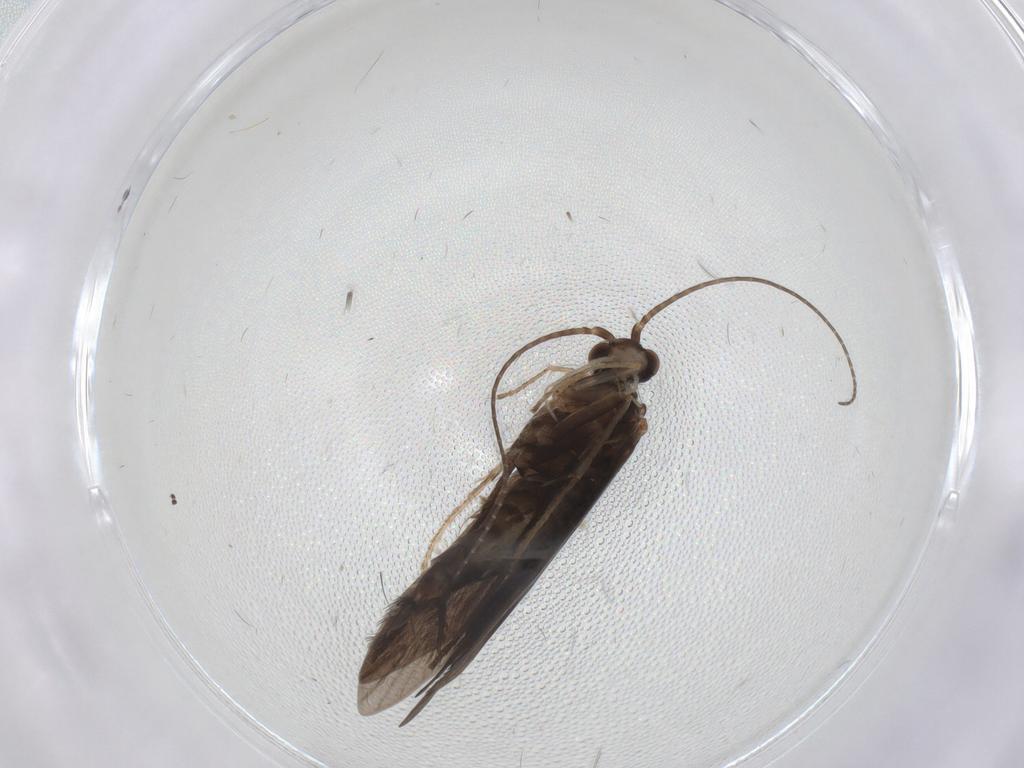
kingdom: Animalia
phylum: Arthropoda
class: Insecta
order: Trichoptera
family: Xiphocentronidae
